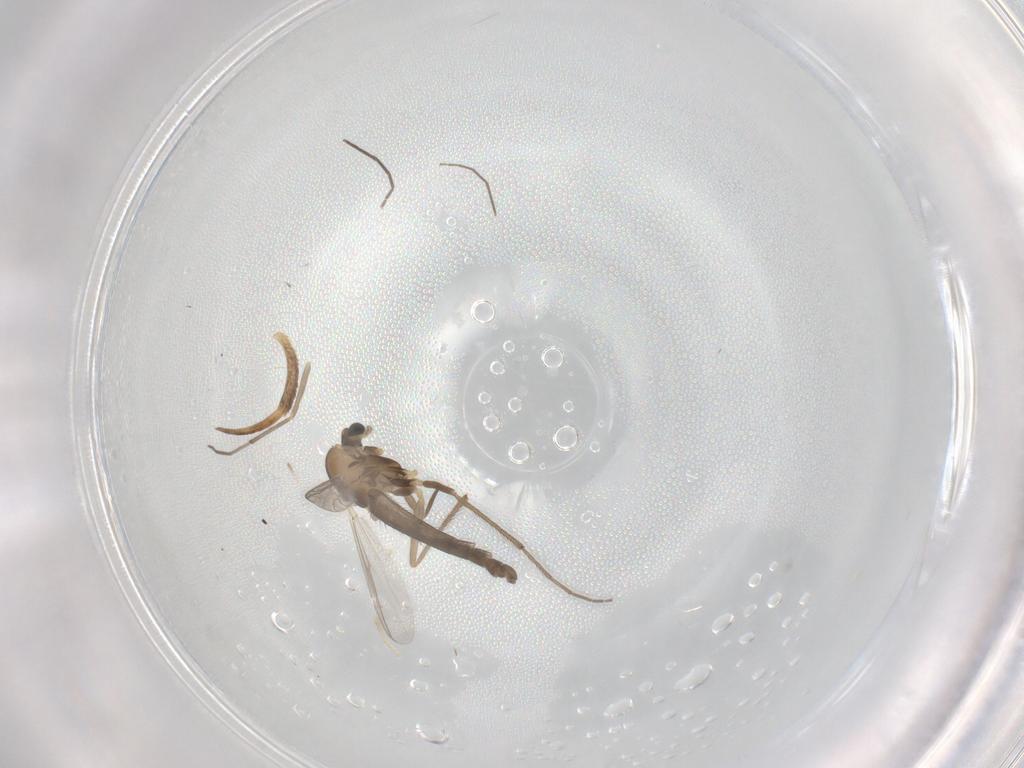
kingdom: Animalia
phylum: Arthropoda
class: Insecta
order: Diptera
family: Chironomidae
